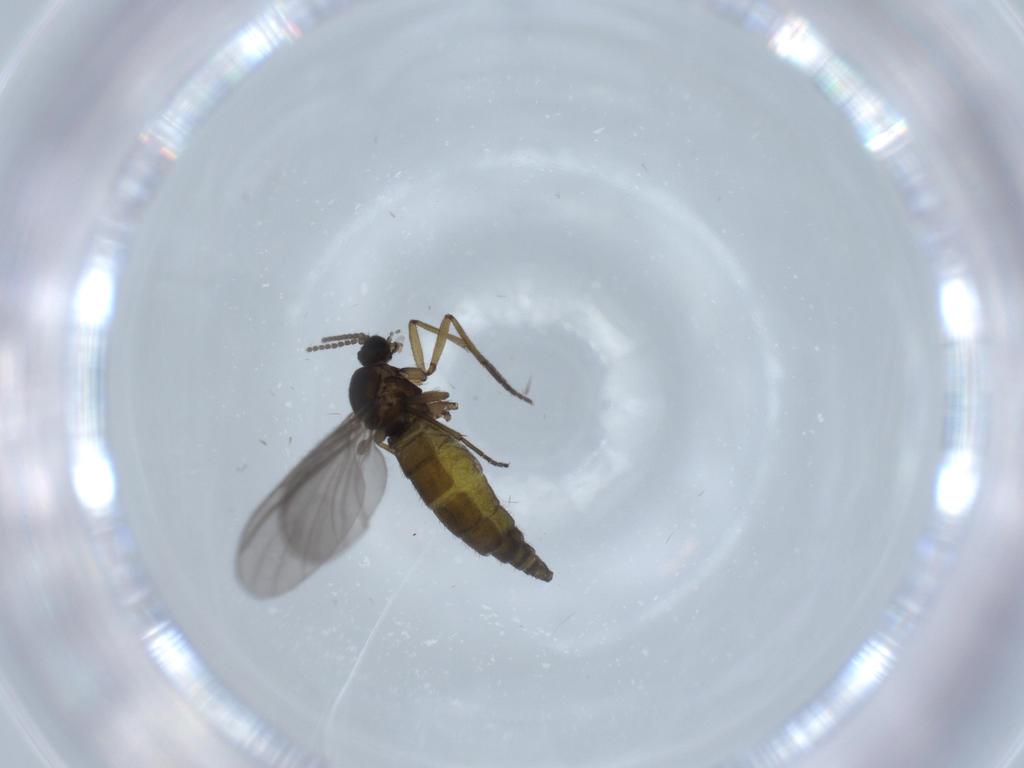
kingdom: Animalia
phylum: Arthropoda
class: Insecta
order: Diptera
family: Sciaridae
